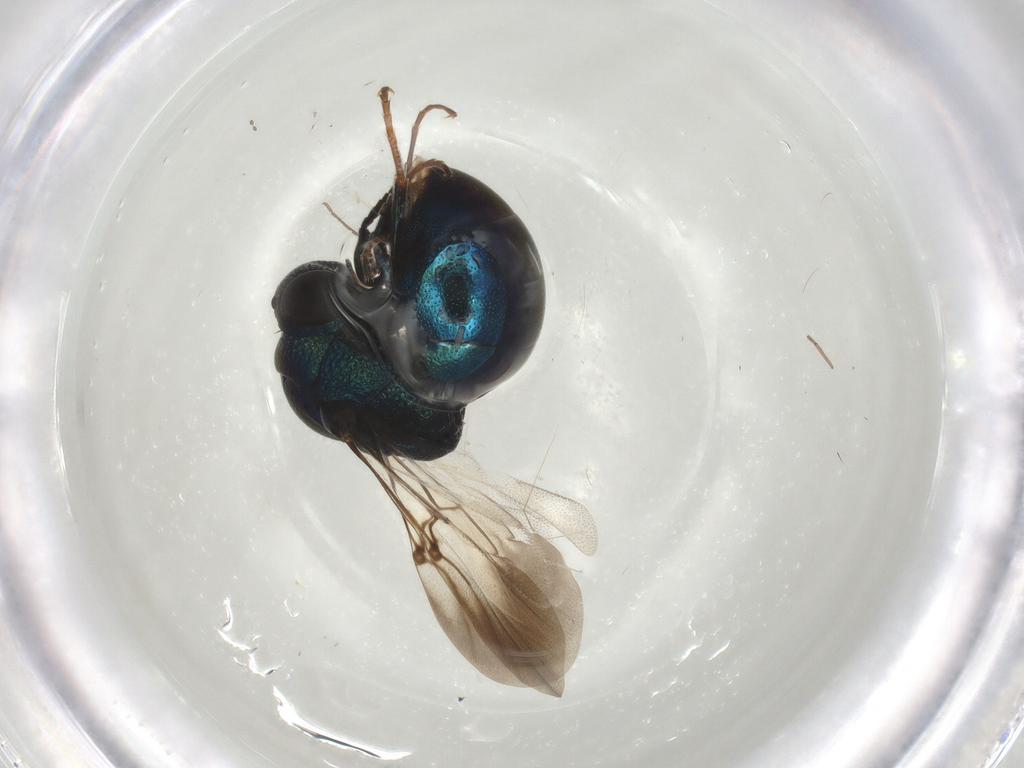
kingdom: Animalia
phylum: Arthropoda
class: Insecta
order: Hymenoptera
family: Chrysididae
